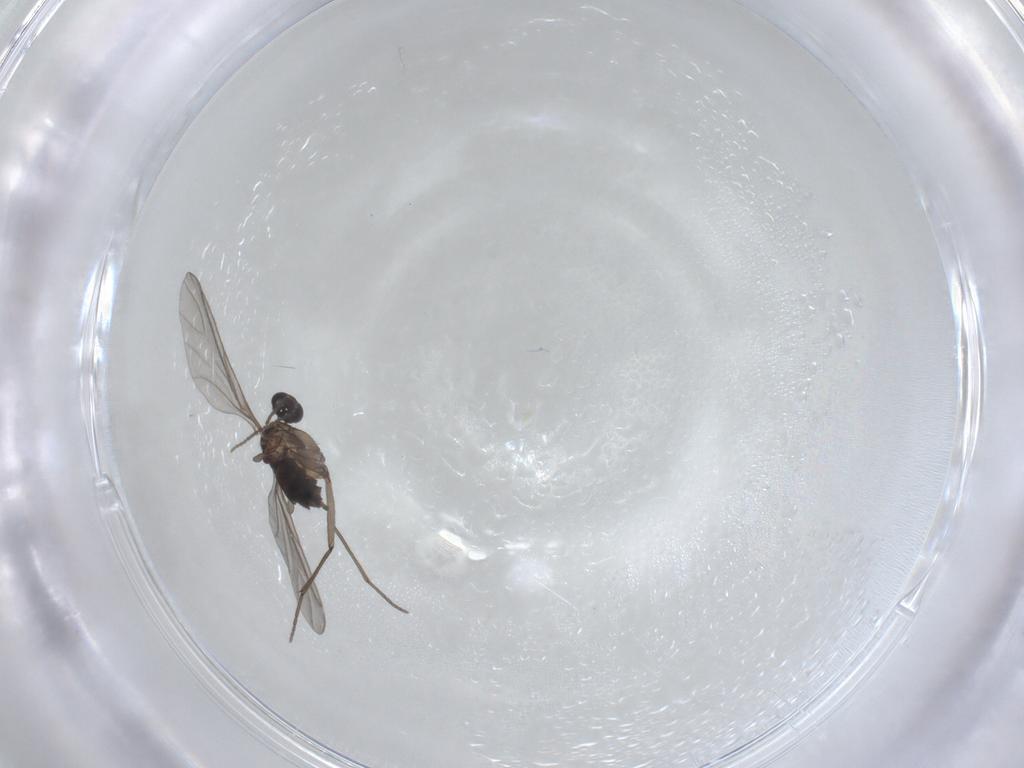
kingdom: Animalia
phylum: Arthropoda
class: Insecta
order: Diptera
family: Sciaridae
